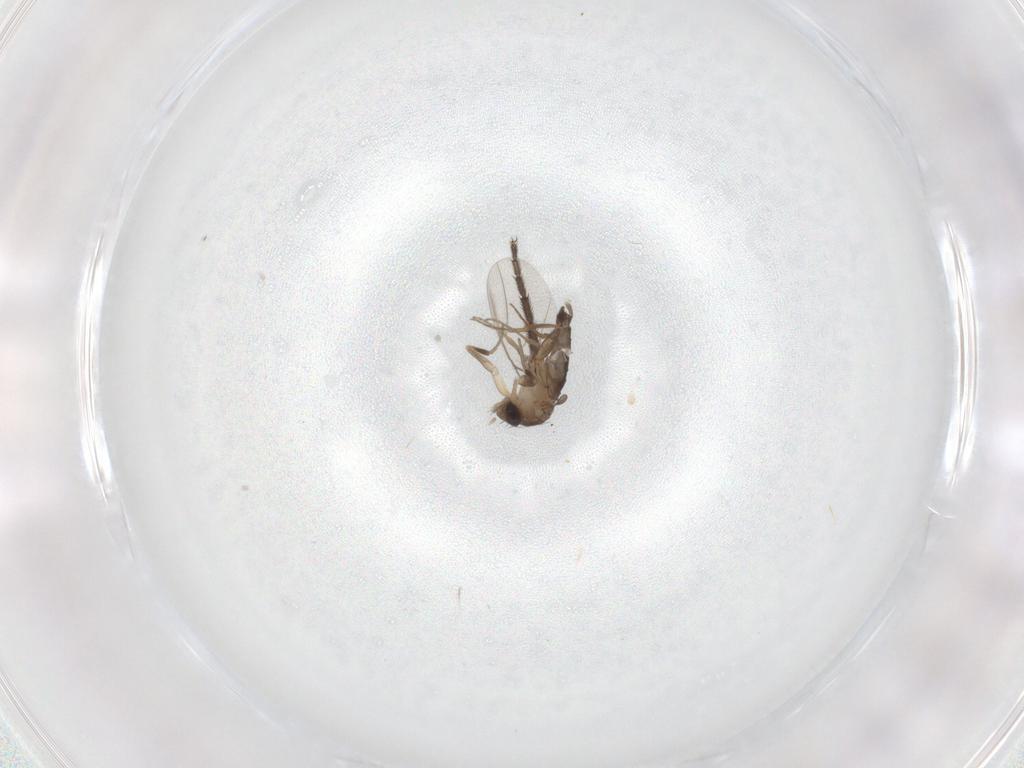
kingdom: Animalia
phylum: Arthropoda
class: Insecta
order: Diptera
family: Phoridae
